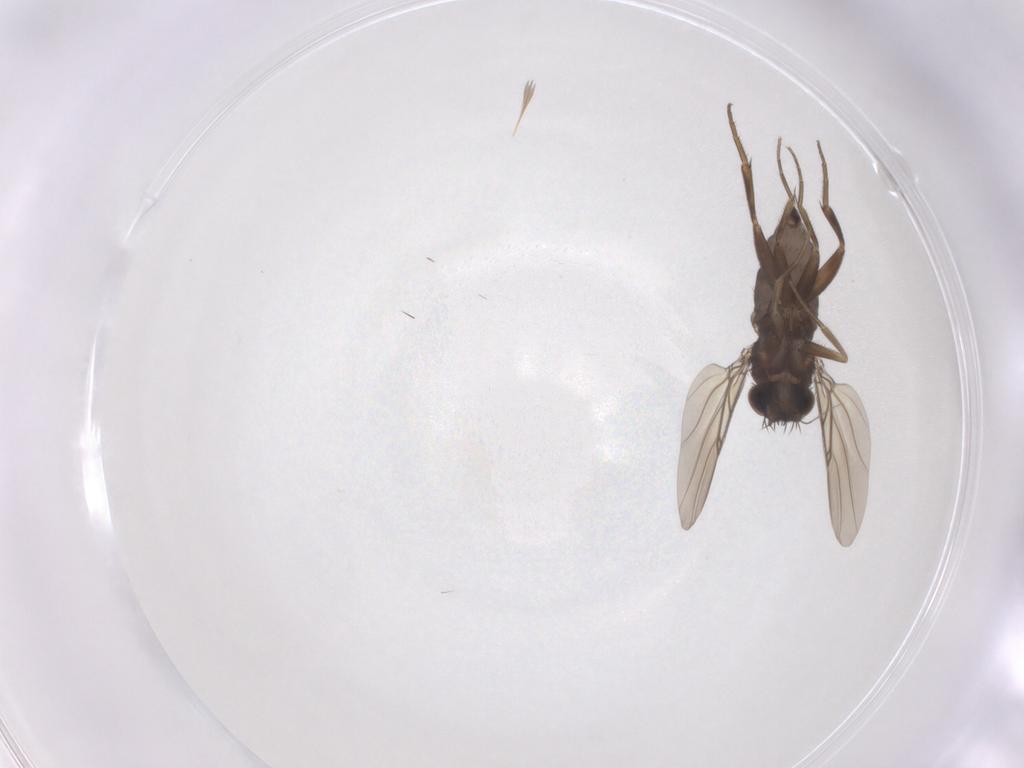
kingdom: Animalia
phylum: Arthropoda
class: Insecta
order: Diptera
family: Phoridae
